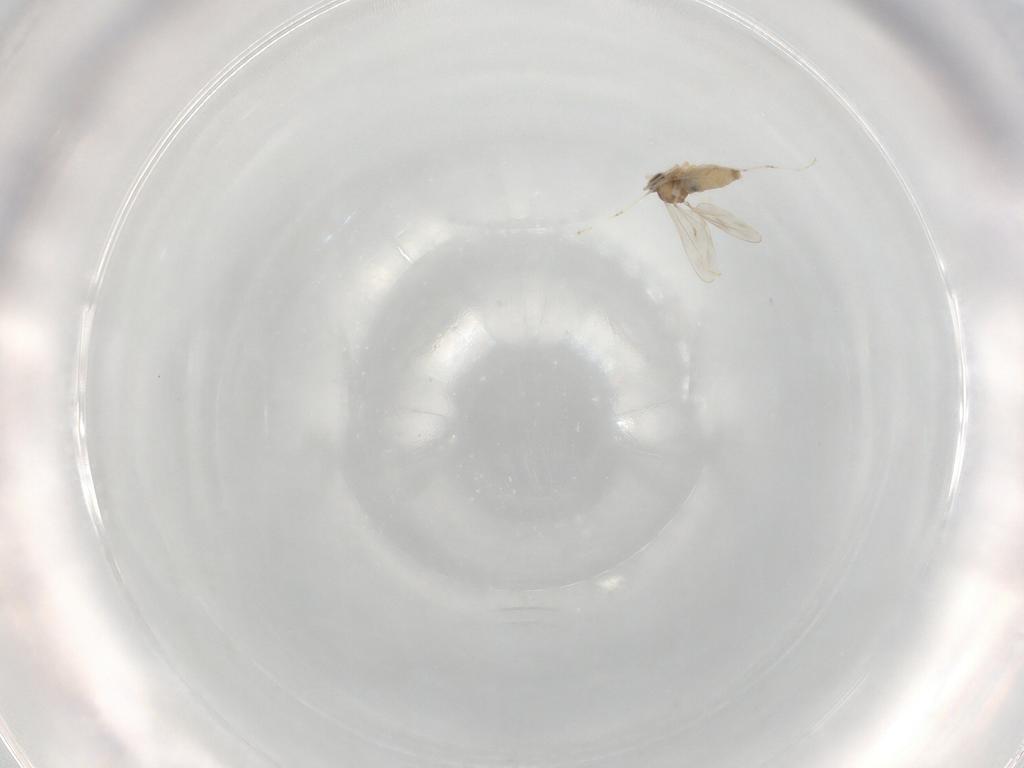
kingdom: Animalia
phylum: Arthropoda
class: Insecta
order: Diptera
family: Cecidomyiidae
